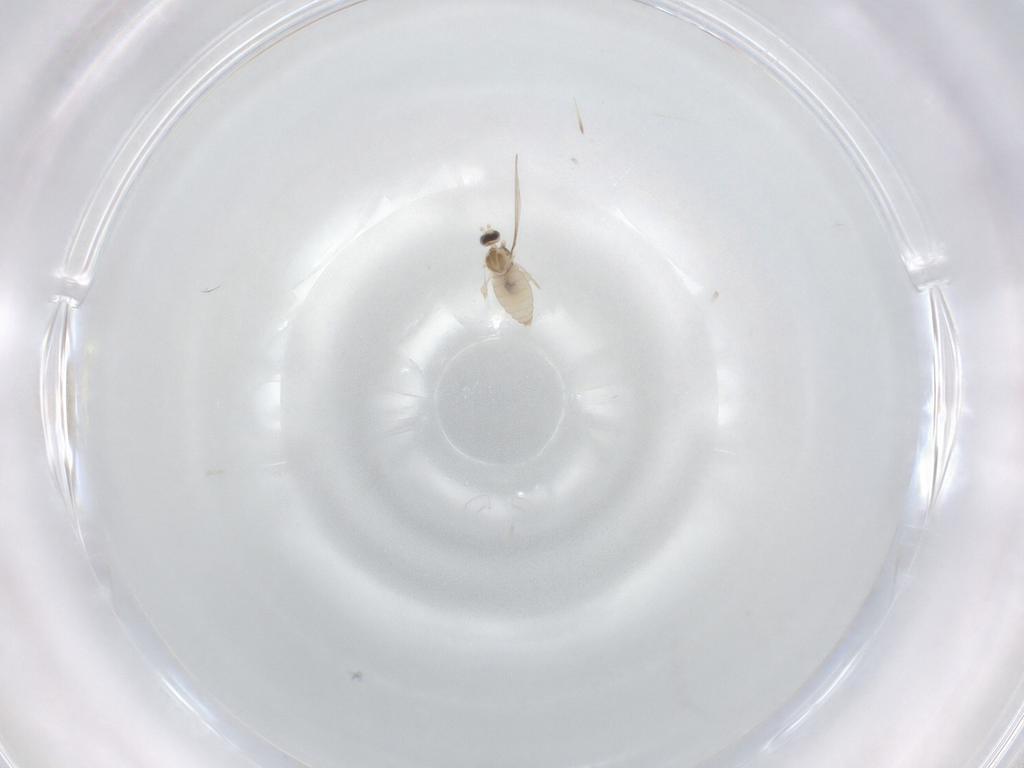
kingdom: Animalia
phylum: Arthropoda
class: Insecta
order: Diptera
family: Cecidomyiidae
